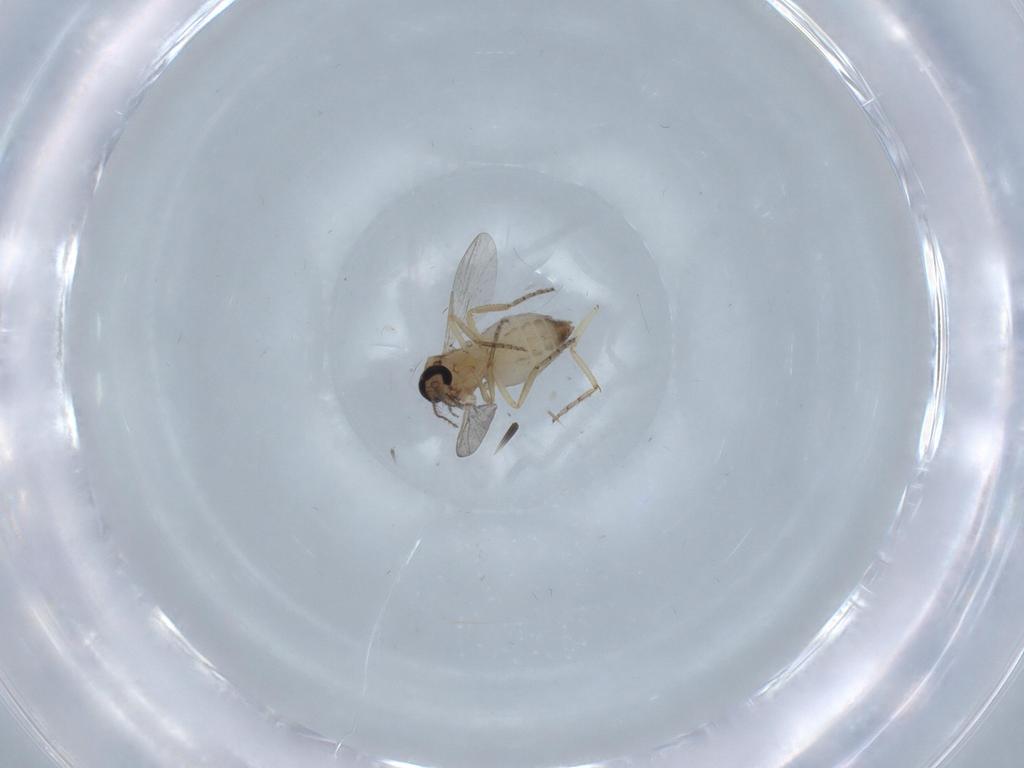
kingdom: Animalia
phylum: Arthropoda
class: Insecta
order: Diptera
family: Ceratopogonidae
